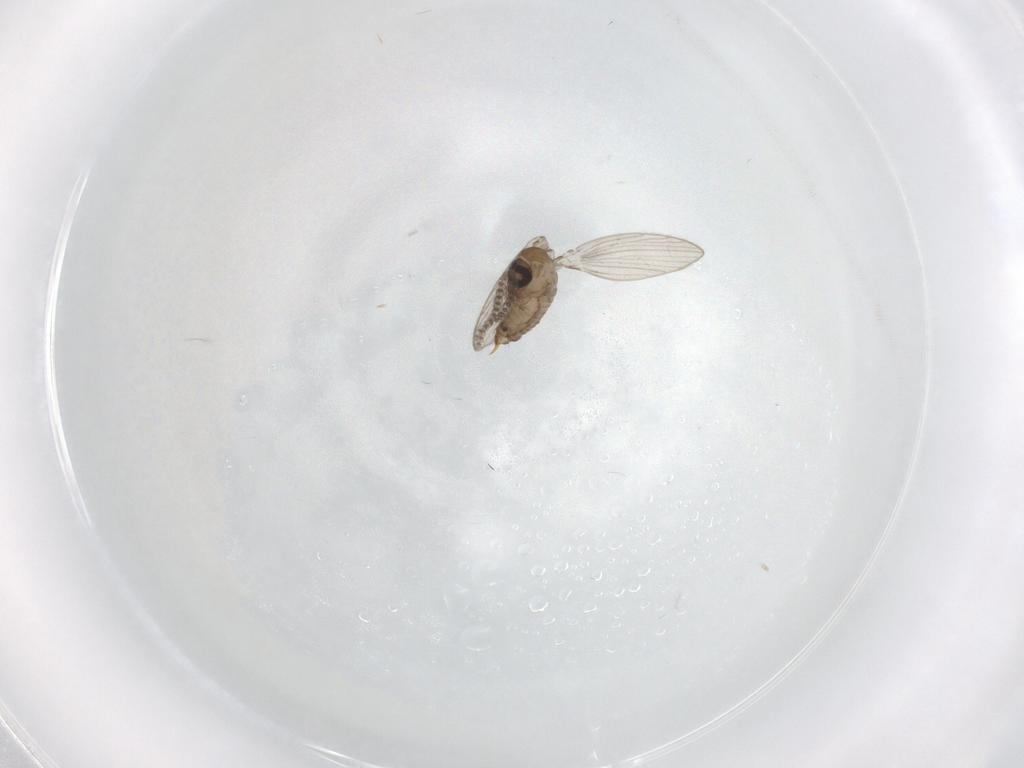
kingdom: Animalia
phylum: Arthropoda
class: Insecta
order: Diptera
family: Psychodidae
